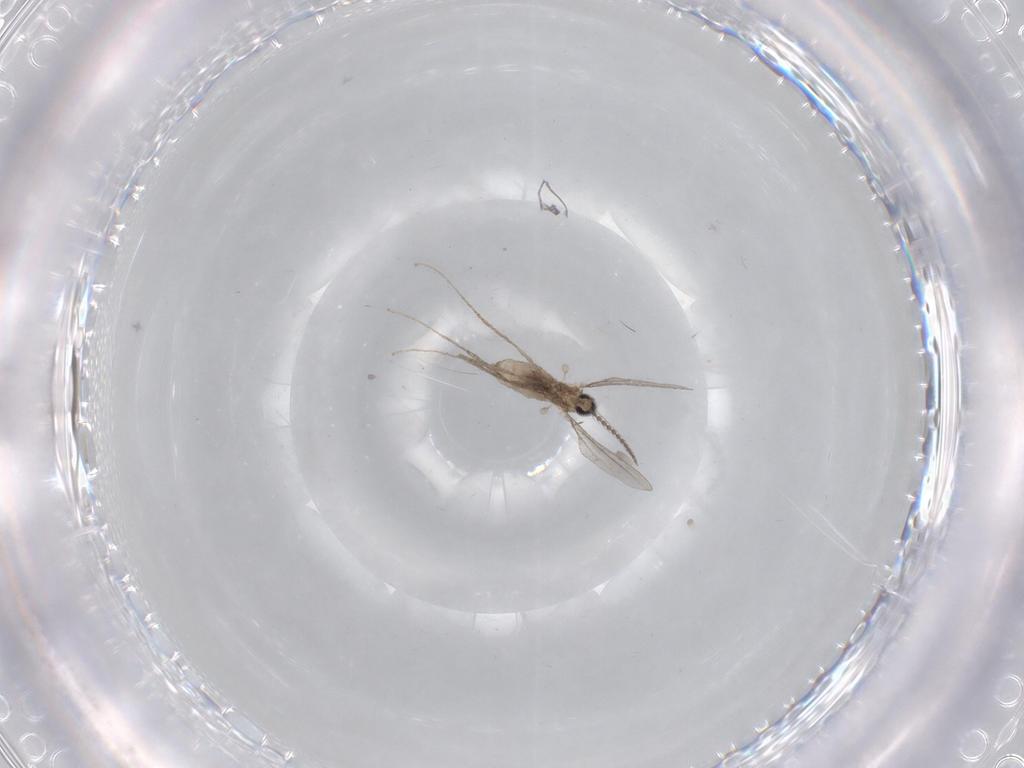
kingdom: Animalia
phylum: Arthropoda
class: Insecta
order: Diptera
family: Cecidomyiidae
